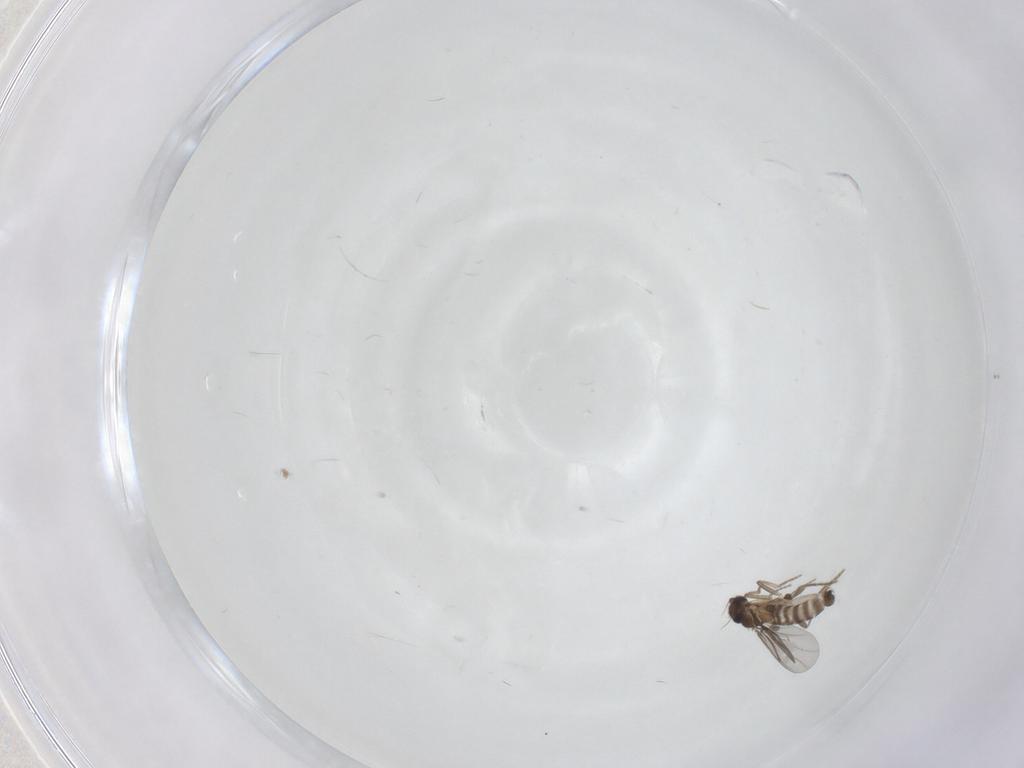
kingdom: Animalia
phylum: Arthropoda
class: Insecta
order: Diptera
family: Phoridae
